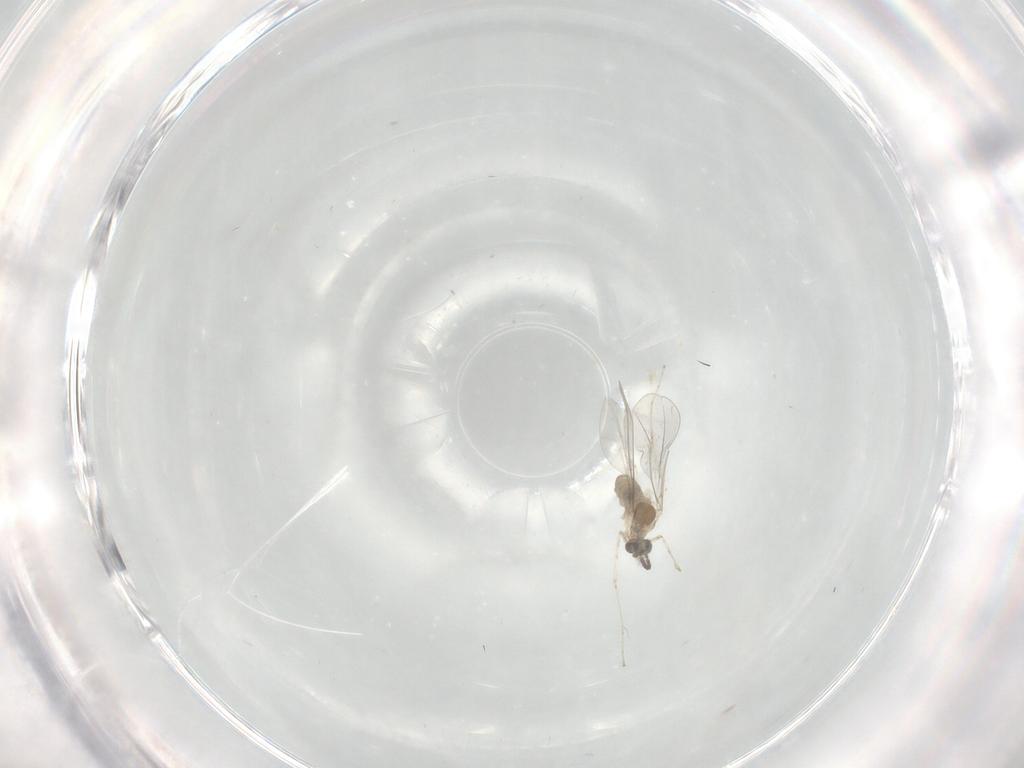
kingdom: Animalia
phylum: Arthropoda
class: Insecta
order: Diptera
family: Cecidomyiidae
